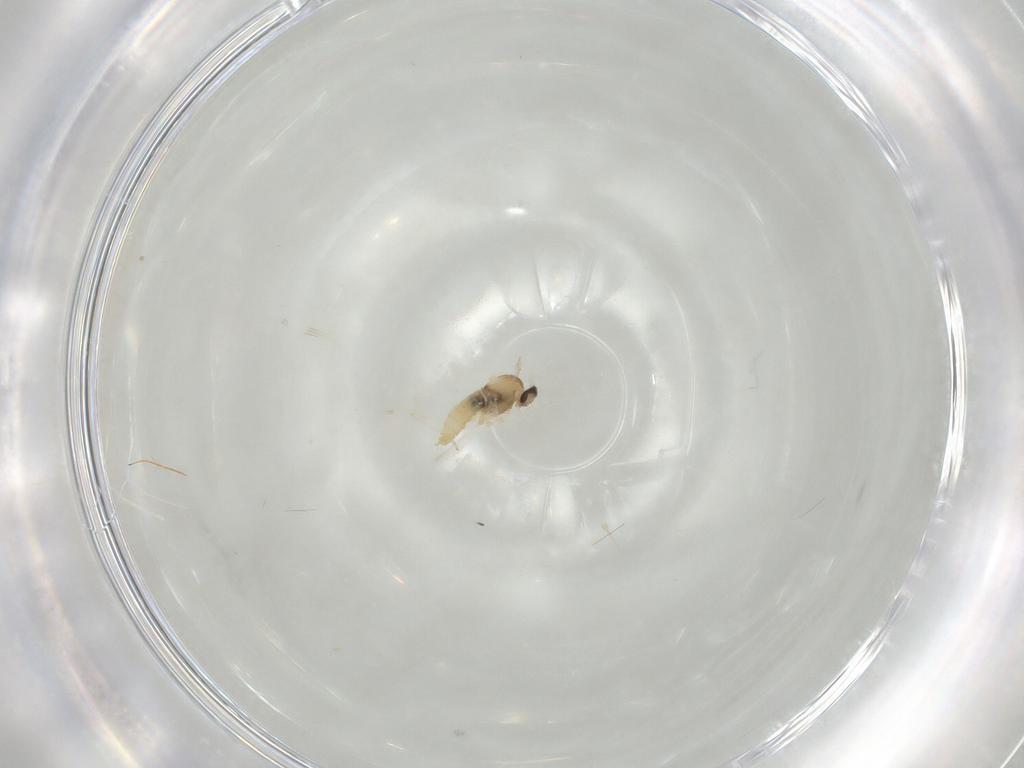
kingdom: Animalia
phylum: Arthropoda
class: Insecta
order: Diptera
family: Cecidomyiidae
